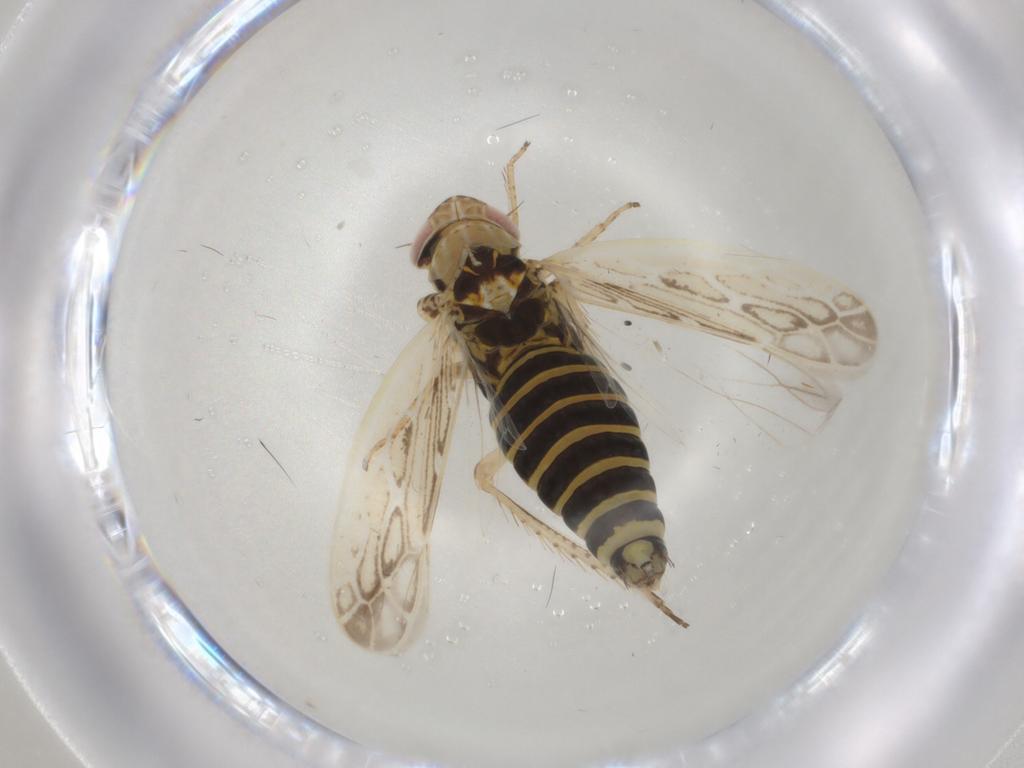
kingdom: Animalia
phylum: Arthropoda
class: Insecta
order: Hemiptera
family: Cicadellidae
